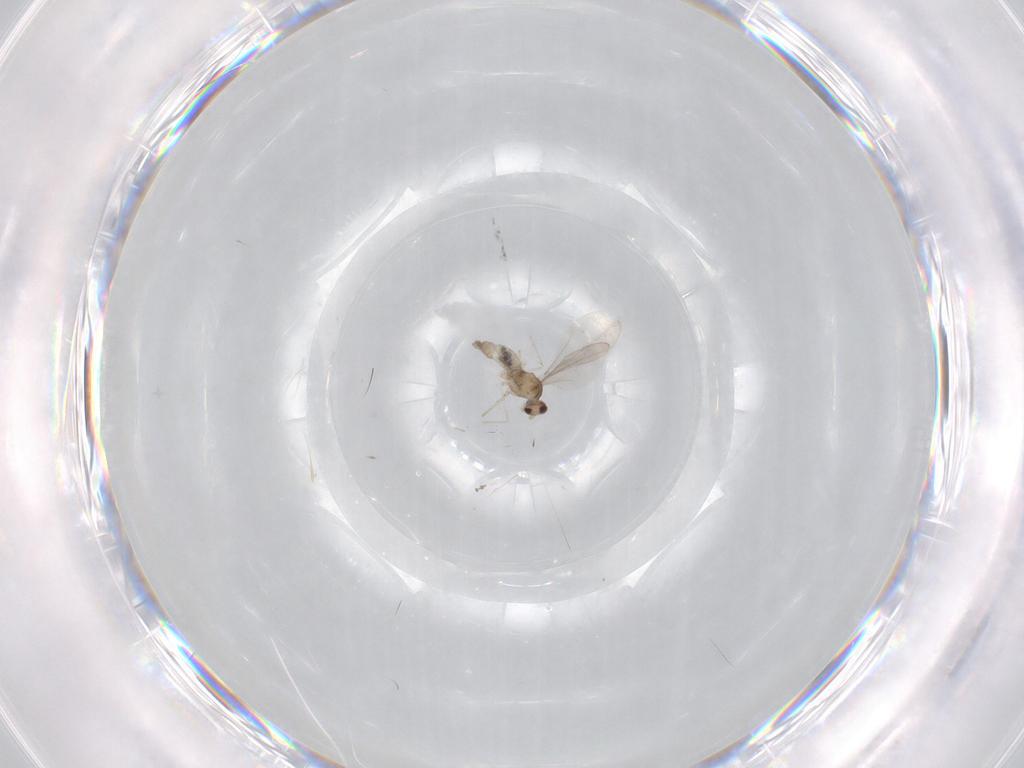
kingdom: Animalia
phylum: Arthropoda
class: Insecta
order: Diptera
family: Cecidomyiidae
